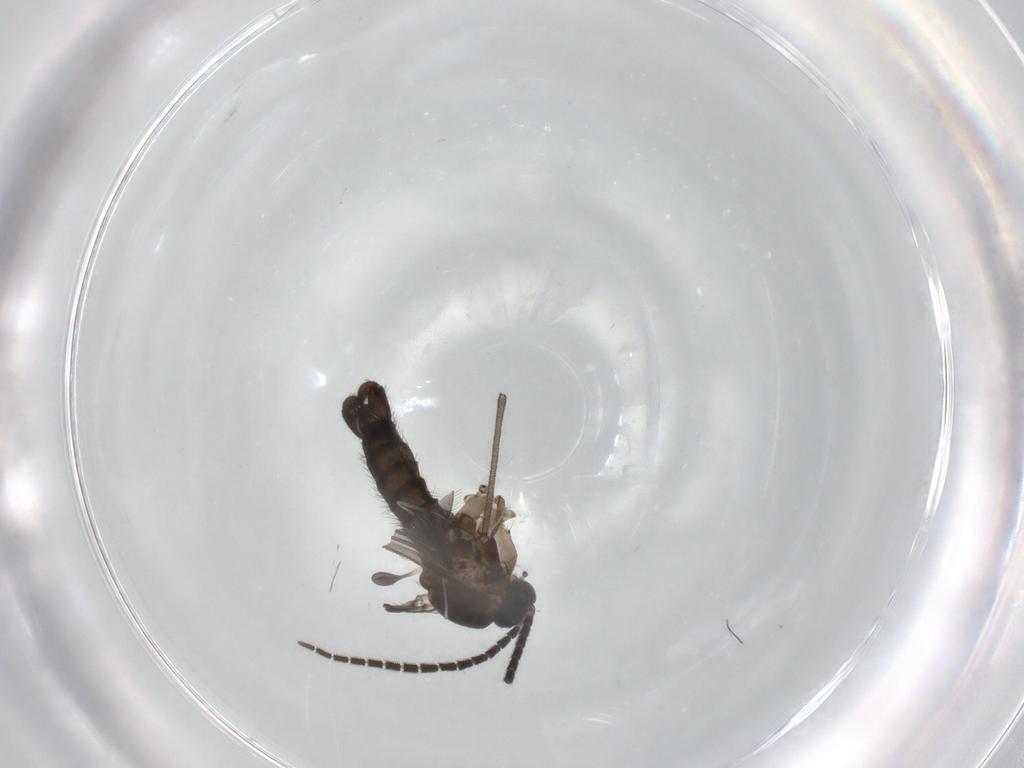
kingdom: Animalia
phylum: Arthropoda
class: Insecta
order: Diptera
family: Sciaridae
